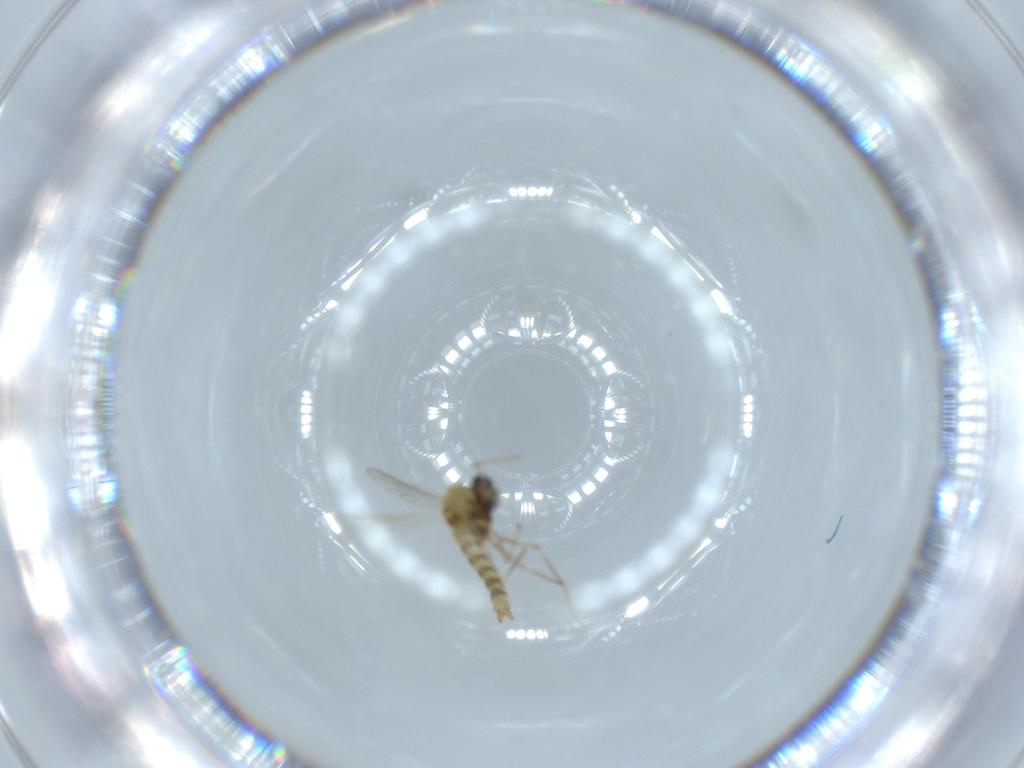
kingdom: Animalia
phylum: Arthropoda
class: Insecta
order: Diptera
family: Chironomidae
